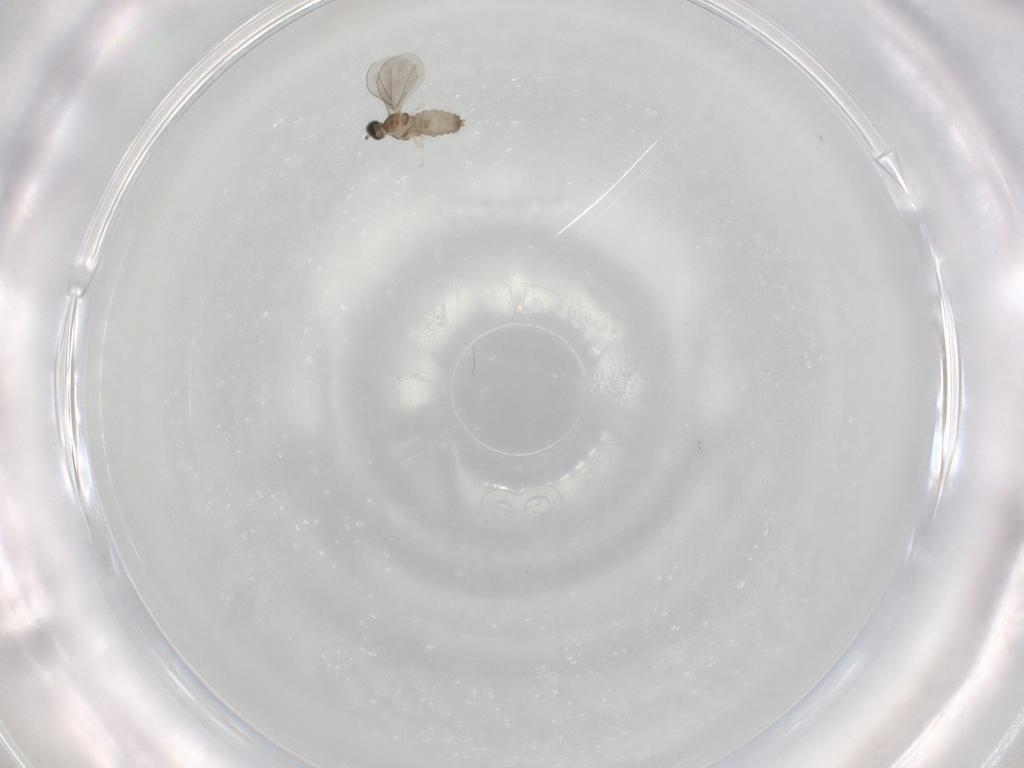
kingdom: Animalia
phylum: Arthropoda
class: Insecta
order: Diptera
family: Cecidomyiidae
